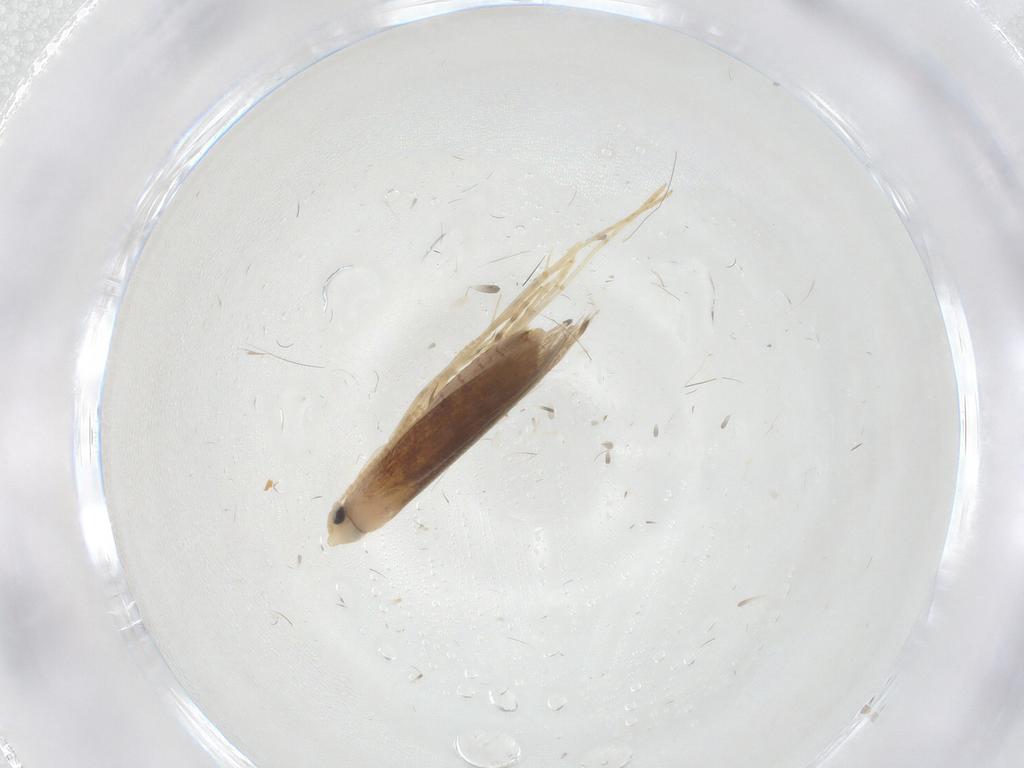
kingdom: Animalia
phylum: Arthropoda
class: Insecta
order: Lepidoptera
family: Lyonetiidae
